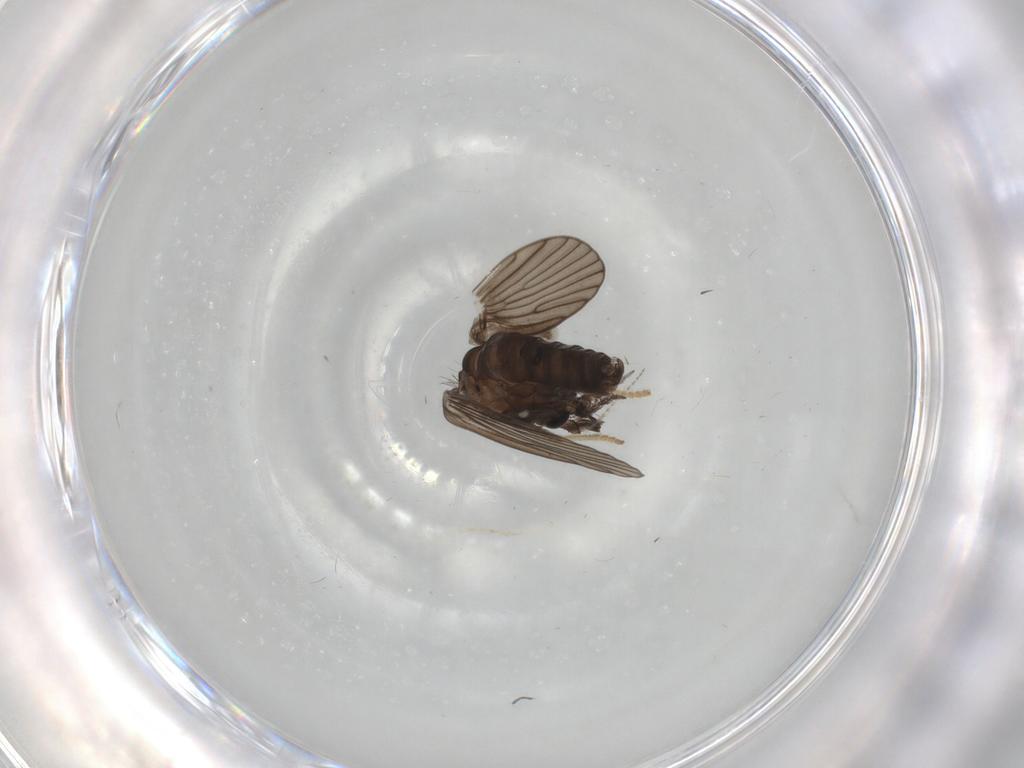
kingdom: Animalia
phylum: Arthropoda
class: Insecta
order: Diptera
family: Psychodidae
